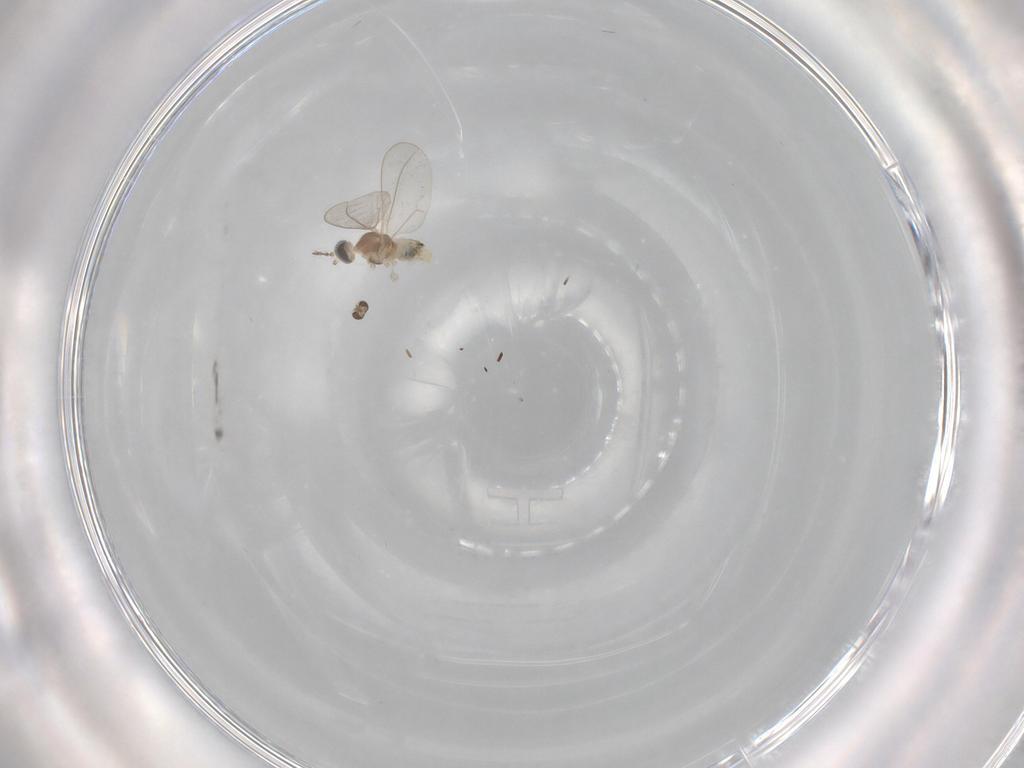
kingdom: Animalia
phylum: Arthropoda
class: Insecta
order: Diptera
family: Cecidomyiidae
